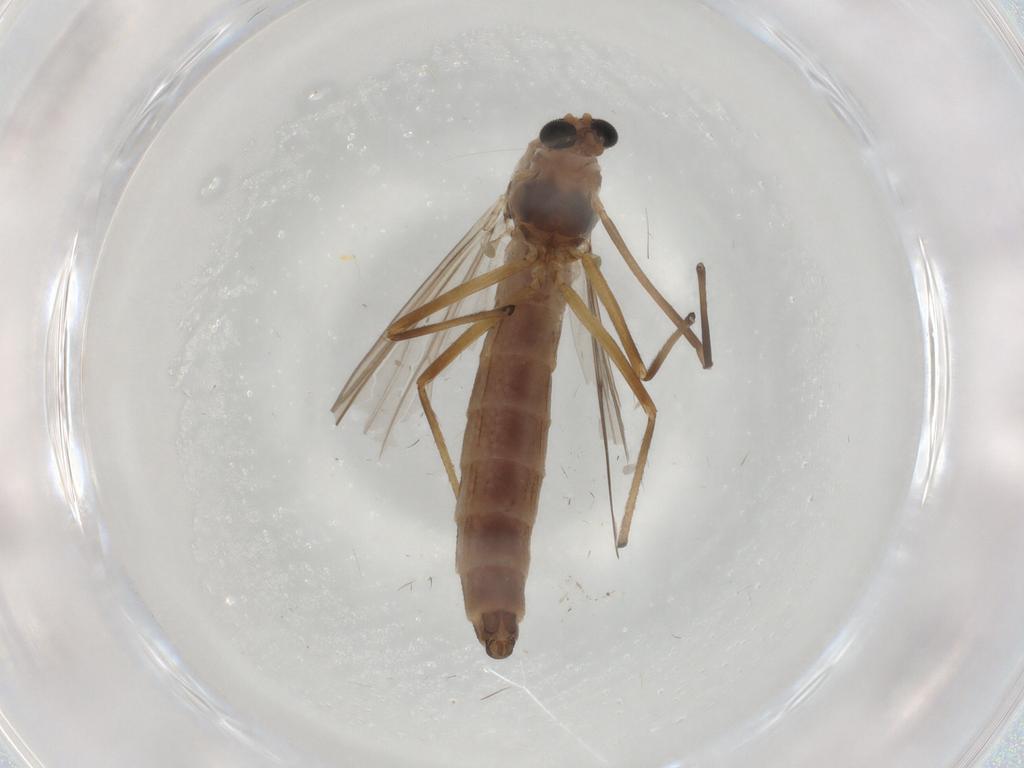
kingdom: Animalia
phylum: Arthropoda
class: Insecta
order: Diptera
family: Chironomidae
